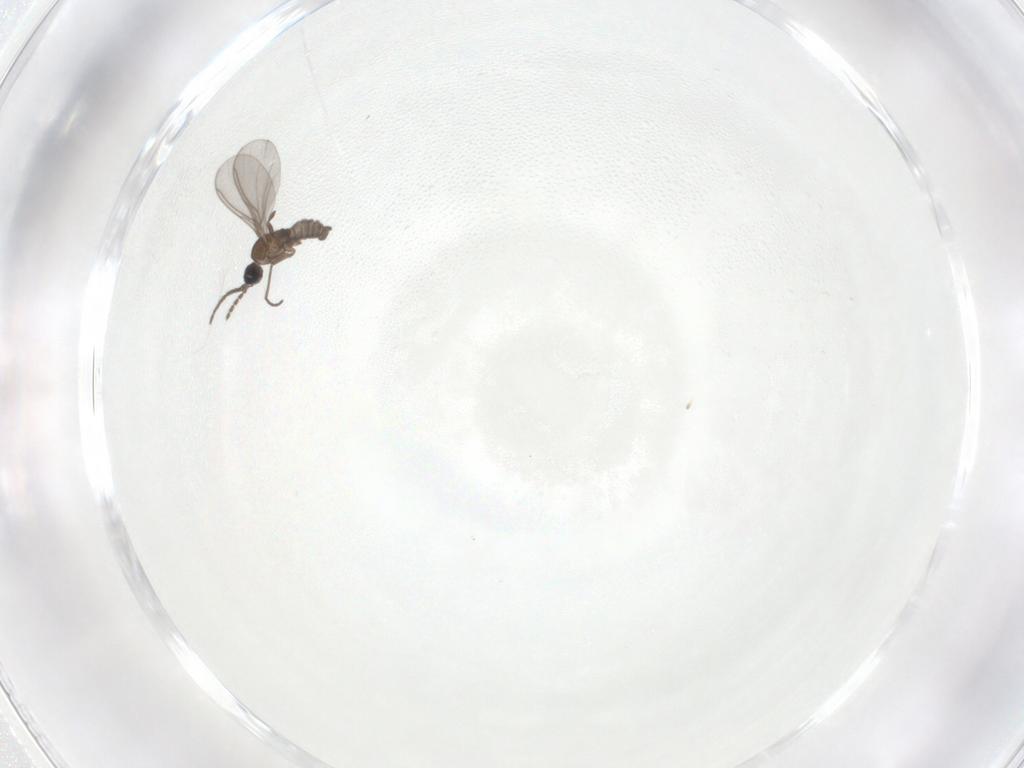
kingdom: Animalia
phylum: Arthropoda
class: Insecta
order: Diptera
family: Sciaridae
